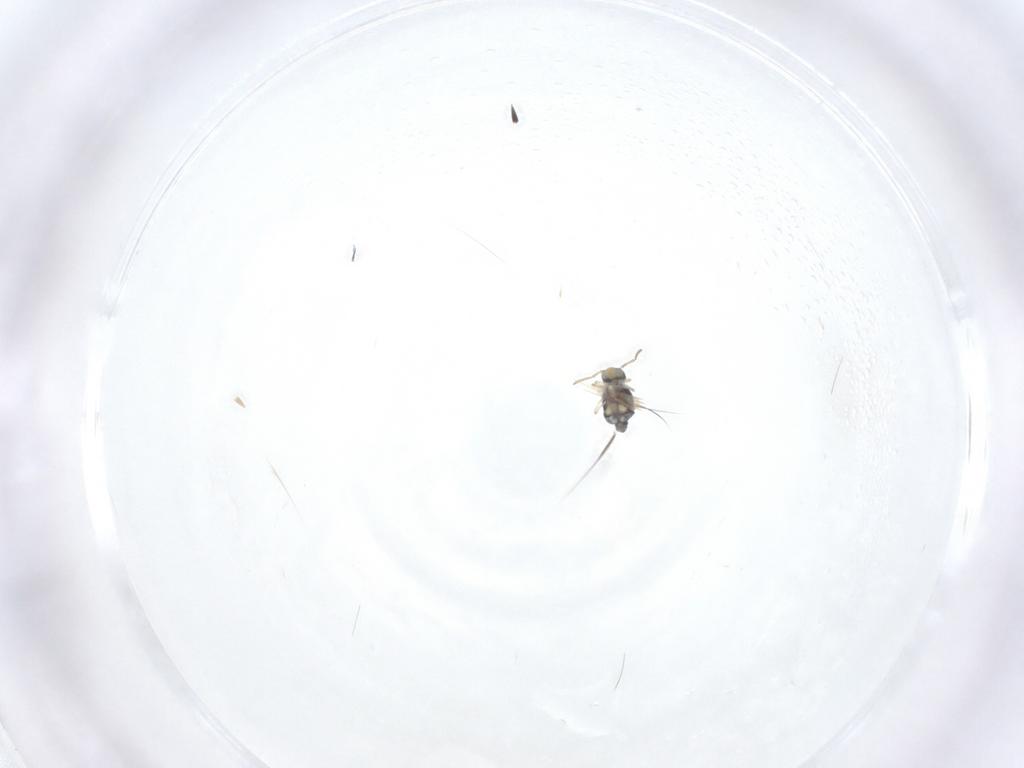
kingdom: Animalia
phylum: Arthropoda
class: Collembola
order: Symphypleona
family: Bourletiellidae
